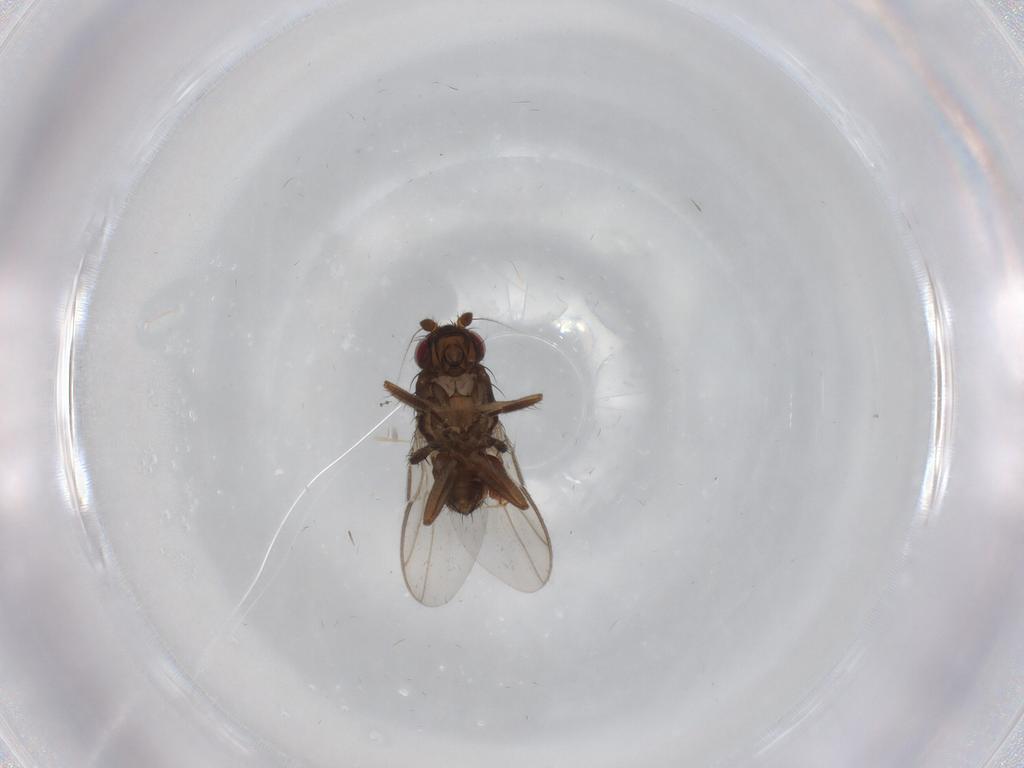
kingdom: Animalia
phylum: Arthropoda
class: Insecta
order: Diptera
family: Sphaeroceridae
